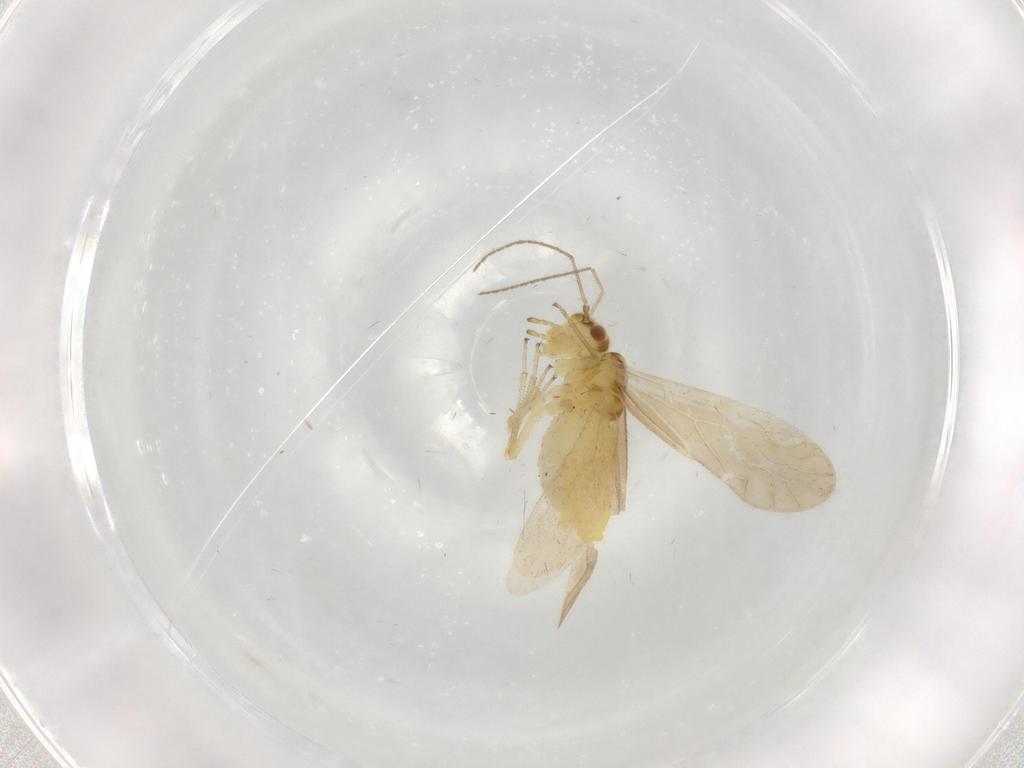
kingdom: Animalia
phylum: Arthropoda
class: Insecta
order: Psocodea
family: Caeciliusidae
